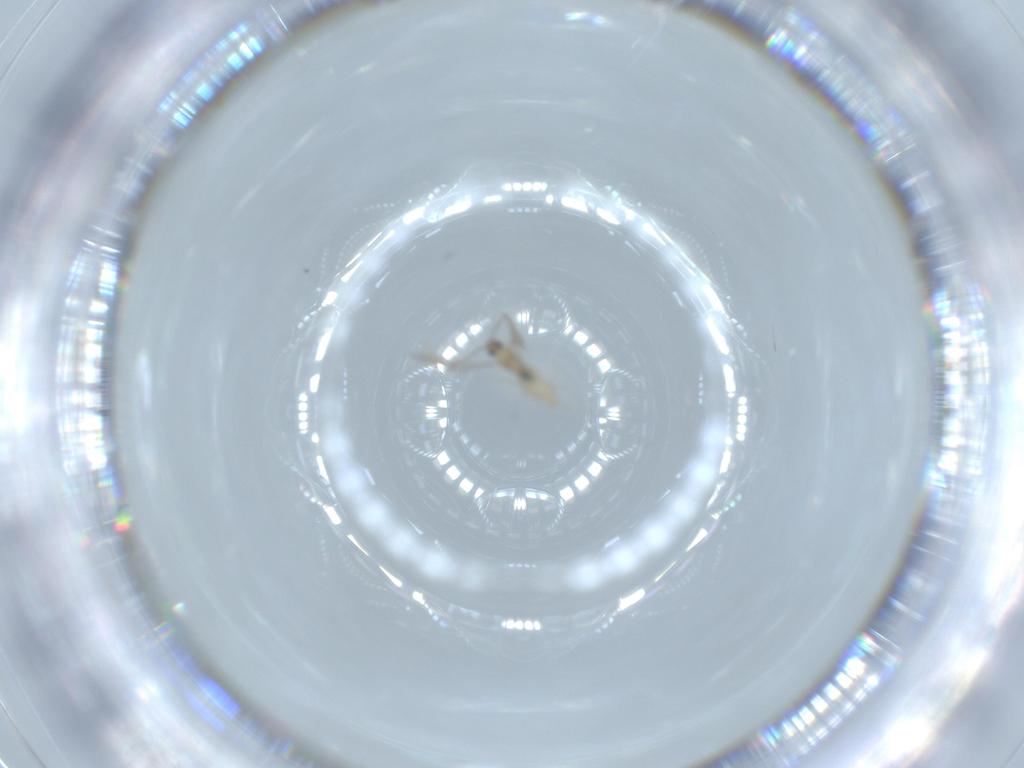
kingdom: Animalia
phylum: Arthropoda
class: Insecta
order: Diptera
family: Cecidomyiidae
